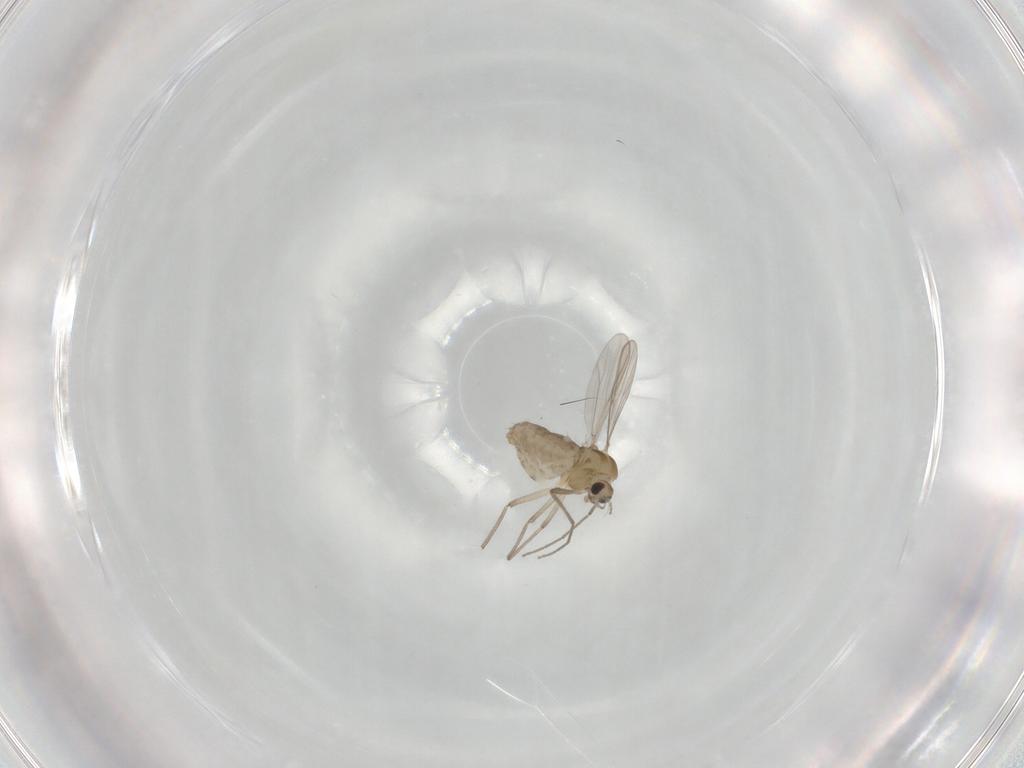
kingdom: Animalia
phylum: Arthropoda
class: Insecta
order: Diptera
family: Chironomidae
